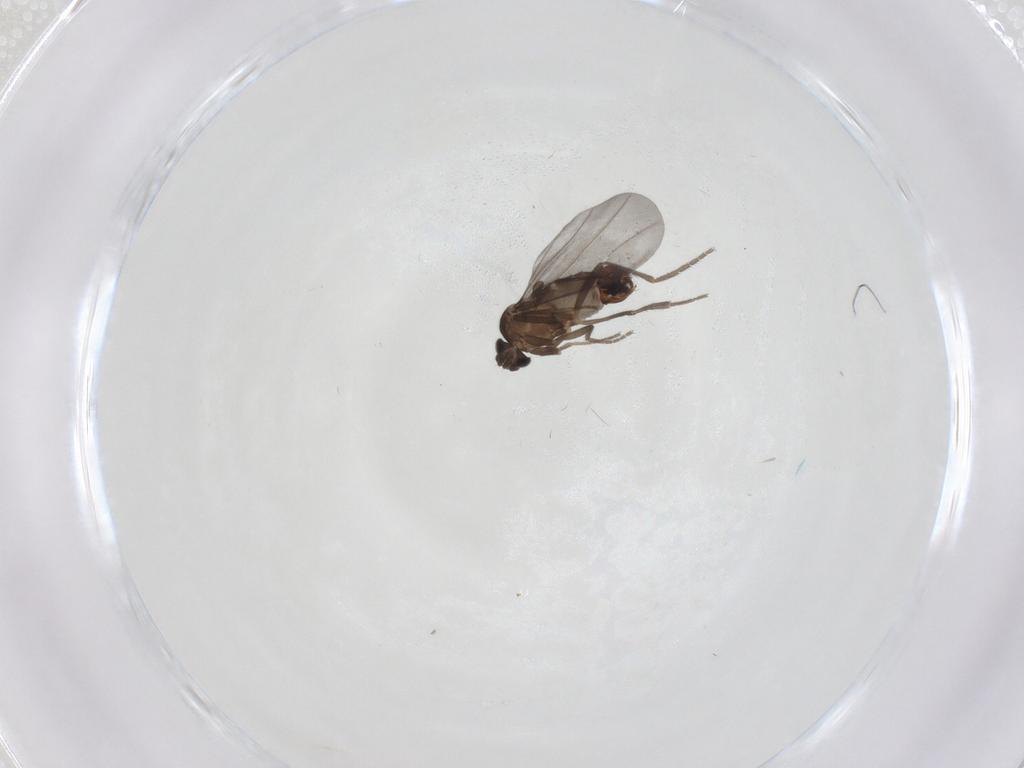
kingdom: Animalia
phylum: Arthropoda
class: Insecta
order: Diptera
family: Phoridae
